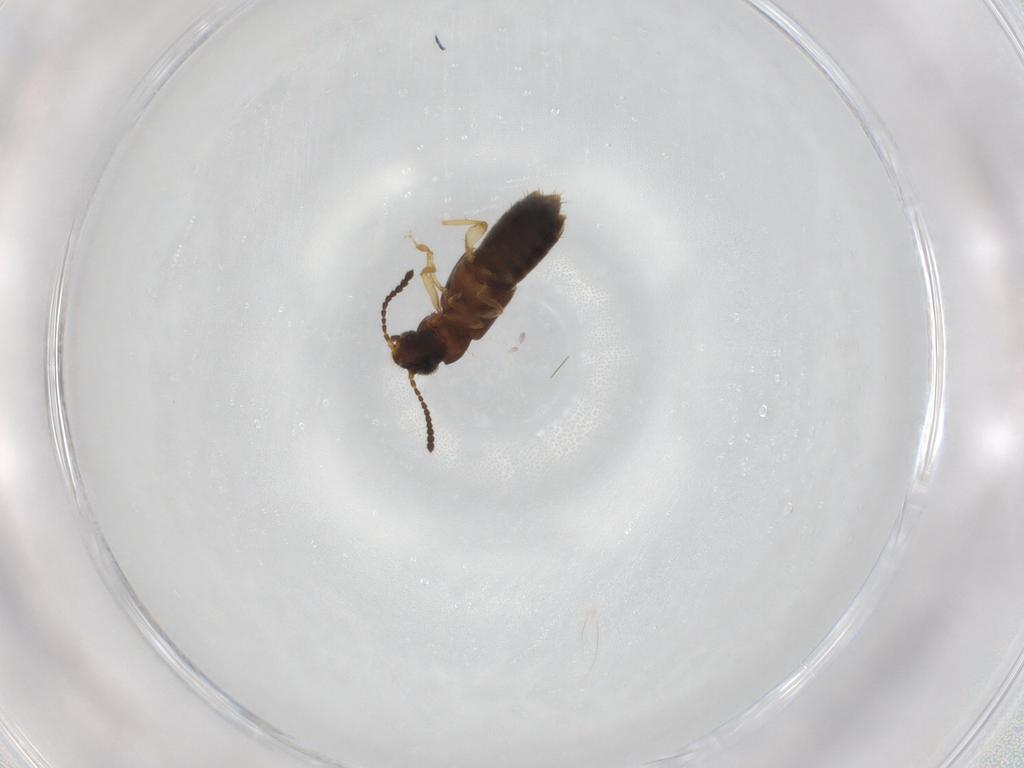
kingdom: Animalia
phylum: Arthropoda
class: Insecta
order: Coleoptera
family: Staphylinidae
